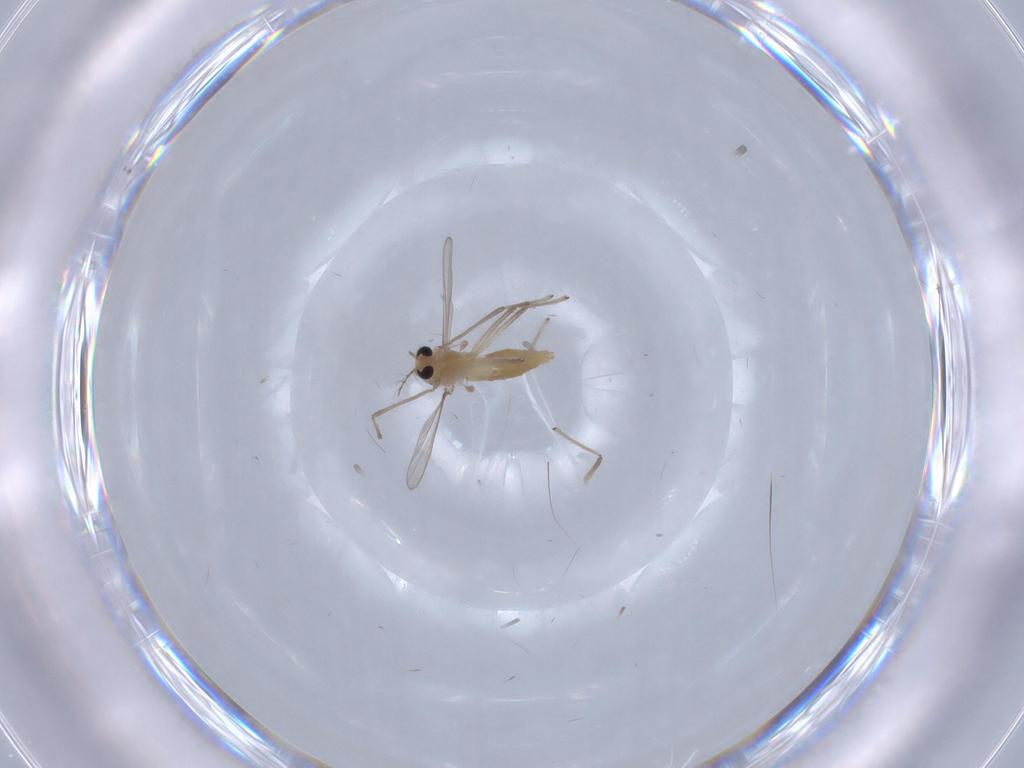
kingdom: Animalia
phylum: Arthropoda
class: Insecta
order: Diptera
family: Chironomidae
